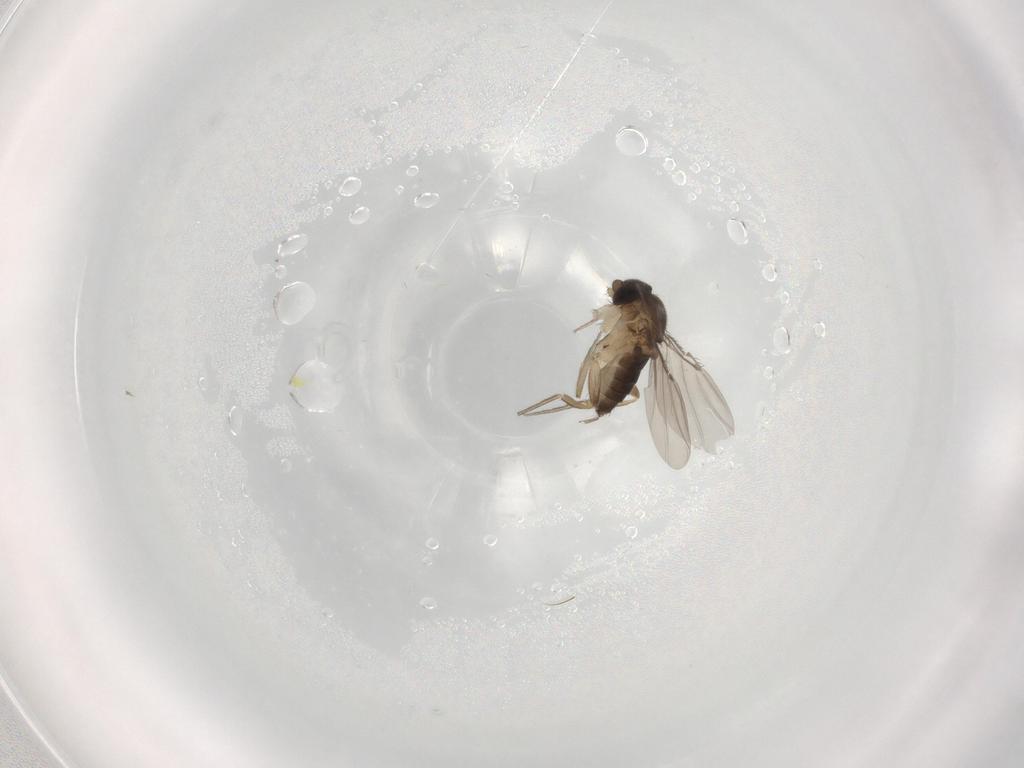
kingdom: Animalia
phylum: Arthropoda
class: Insecta
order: Diptera
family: Phoridae
